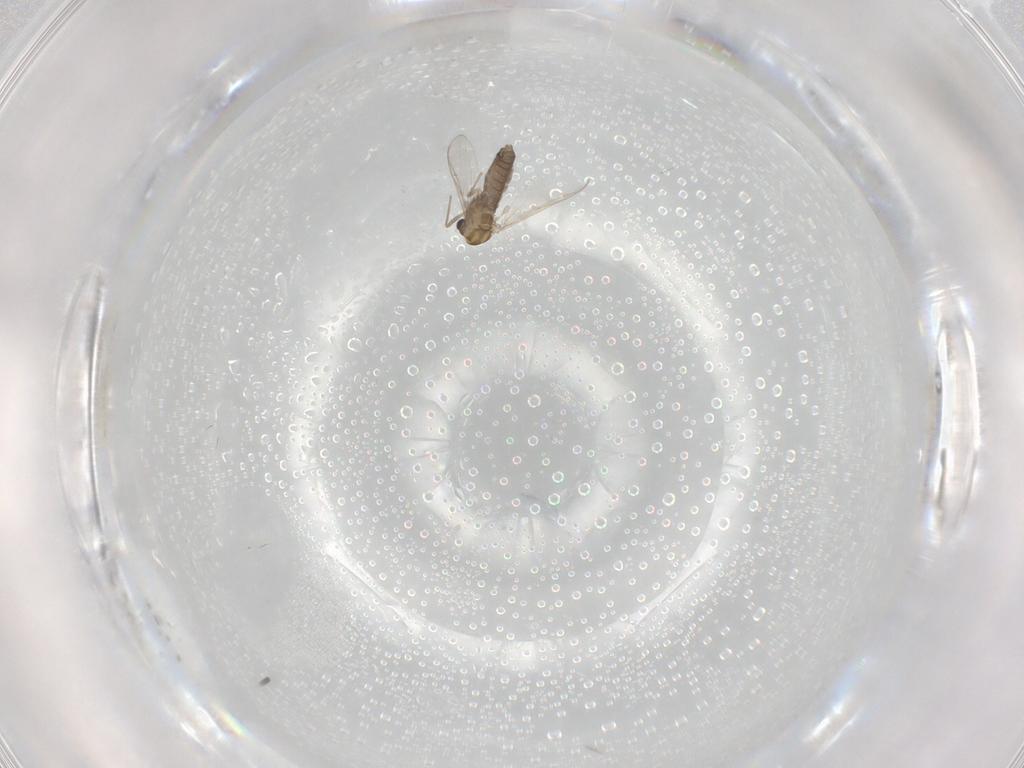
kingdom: Animalia
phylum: Arthropoda
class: Insecta
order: Diptera
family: Chironomidae
